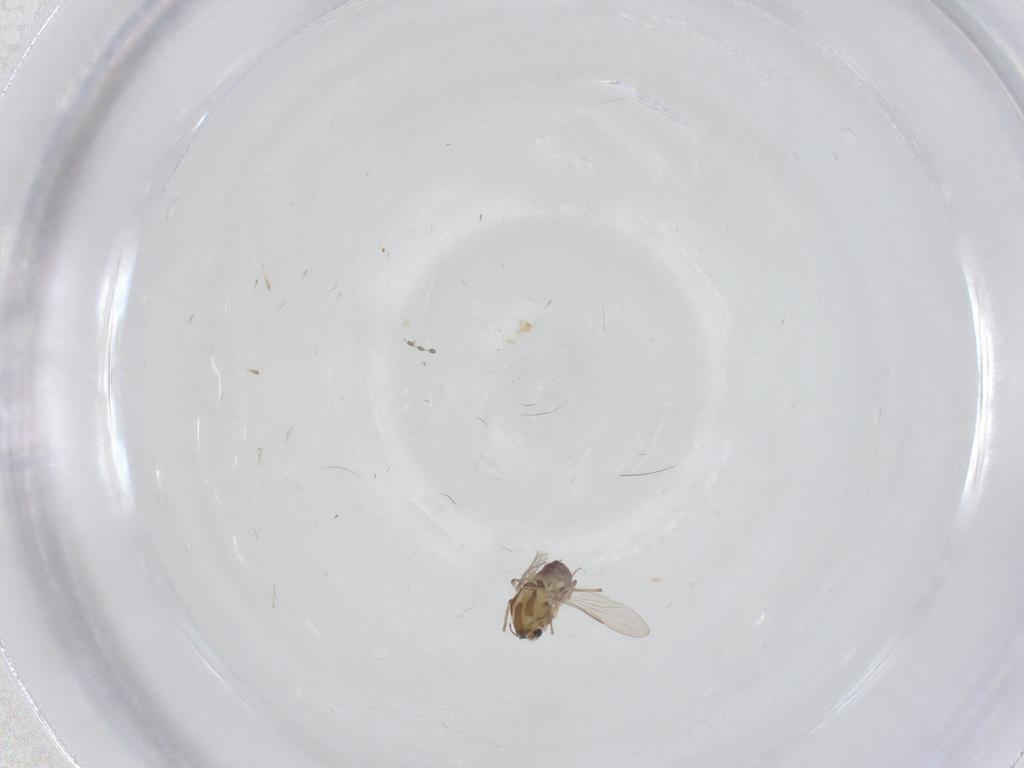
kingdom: Animalia
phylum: Arthropoda
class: Insecta
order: Diptera
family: Chironomidae
